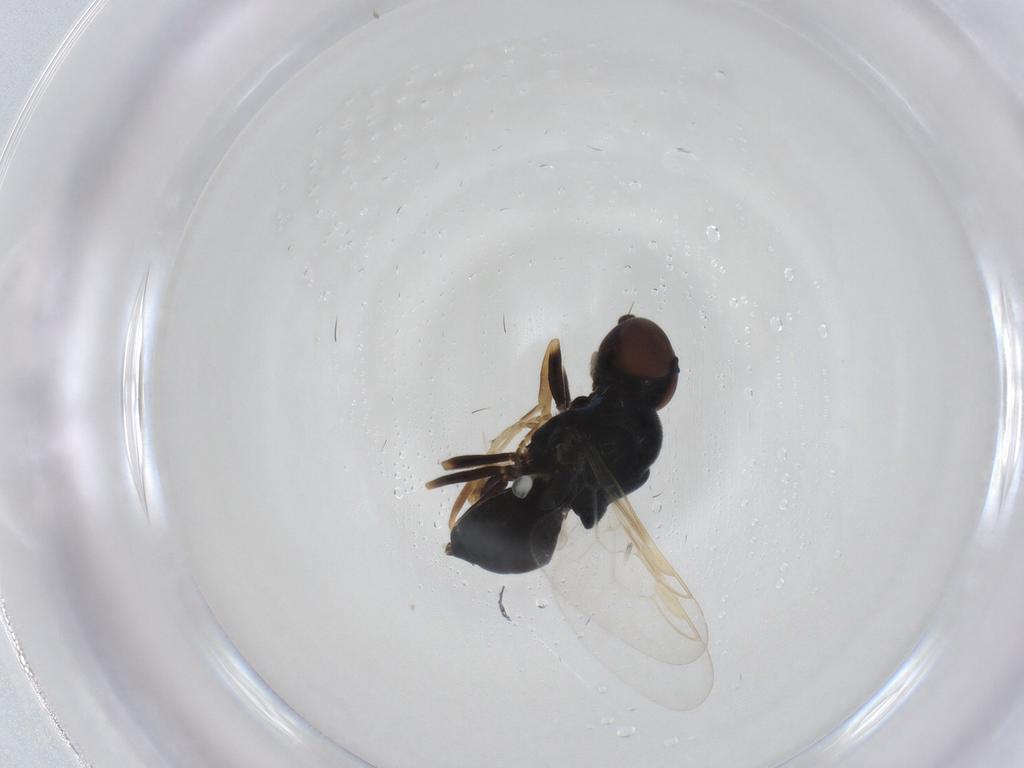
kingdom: Animalia
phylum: Arthropoda
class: Insecta
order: Diptera
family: Stratiomyidae
